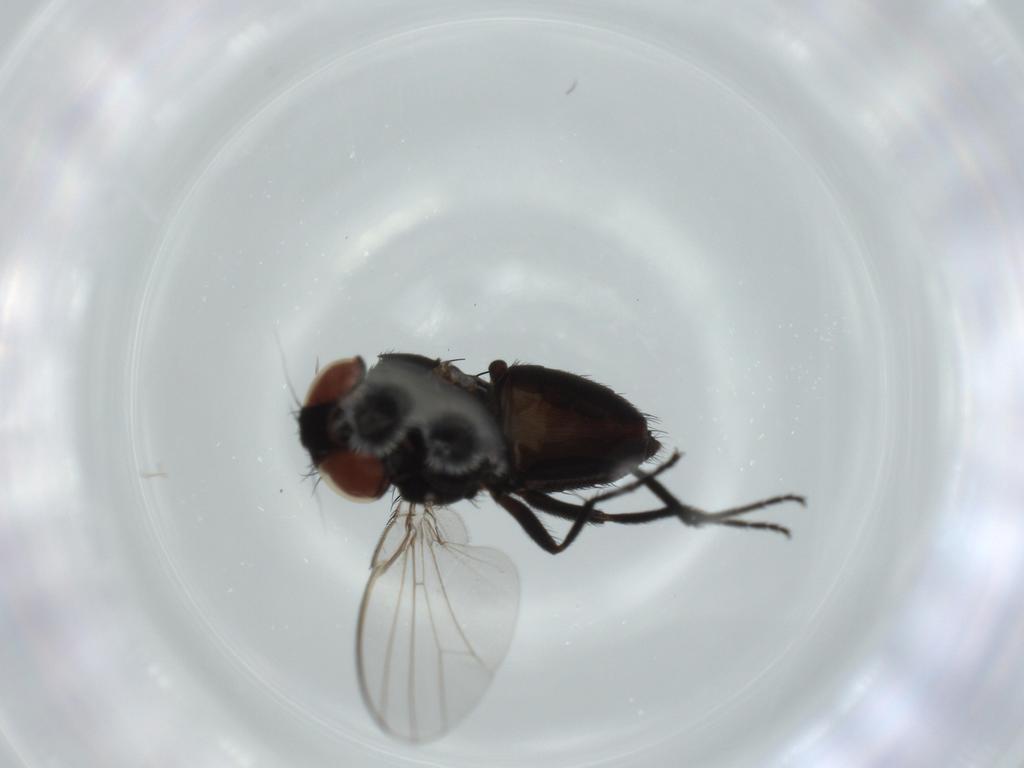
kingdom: Animalia
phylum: Arthropoda
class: Insecta
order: Diptera
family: Milichiidae
